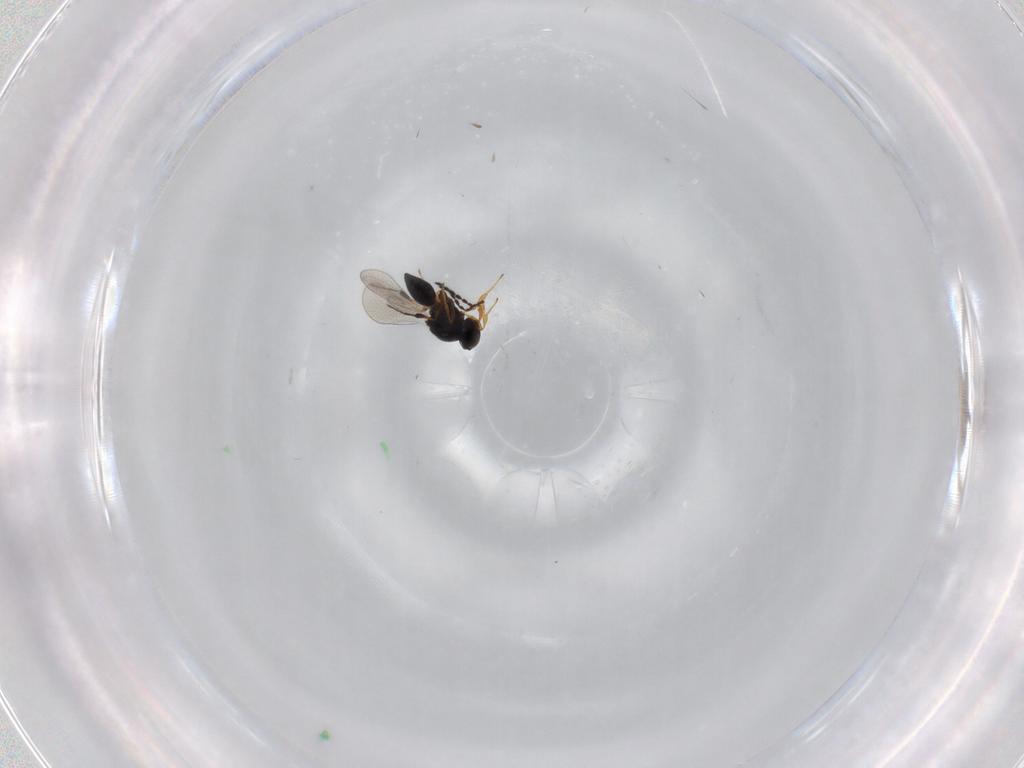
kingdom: Animalia
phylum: Arthropoda
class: Insecta
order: Hymenoptera
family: Platygastridae
